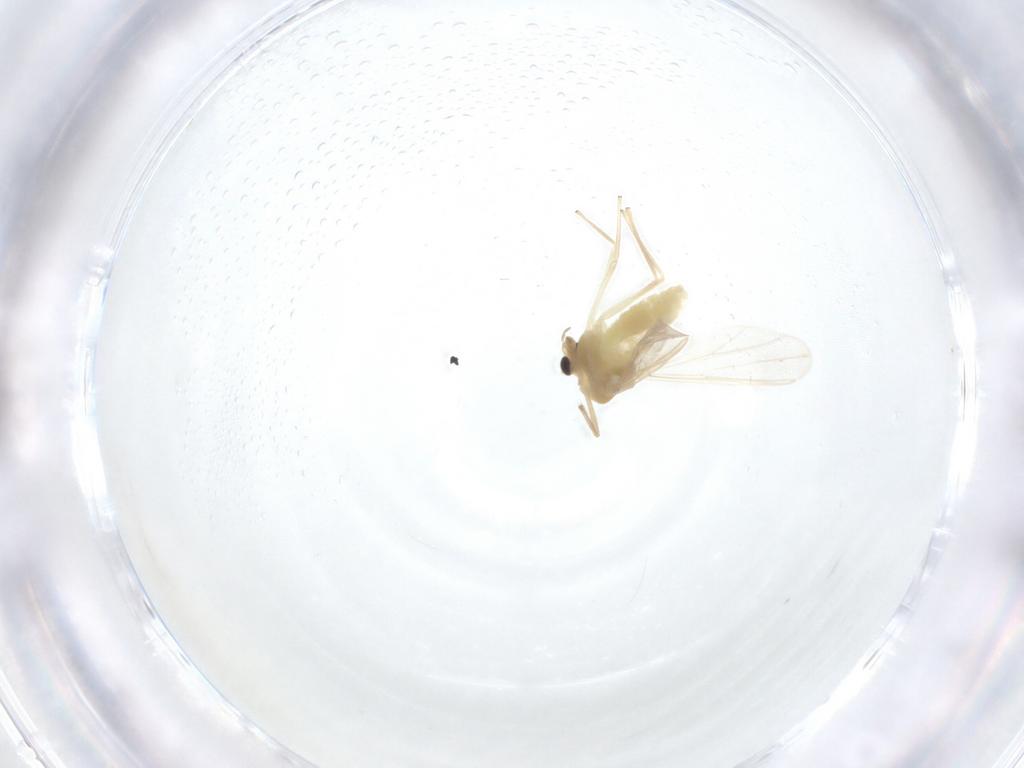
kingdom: Animalia
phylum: Arthropoda
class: Insecta
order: Diptera
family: Chironomidae
